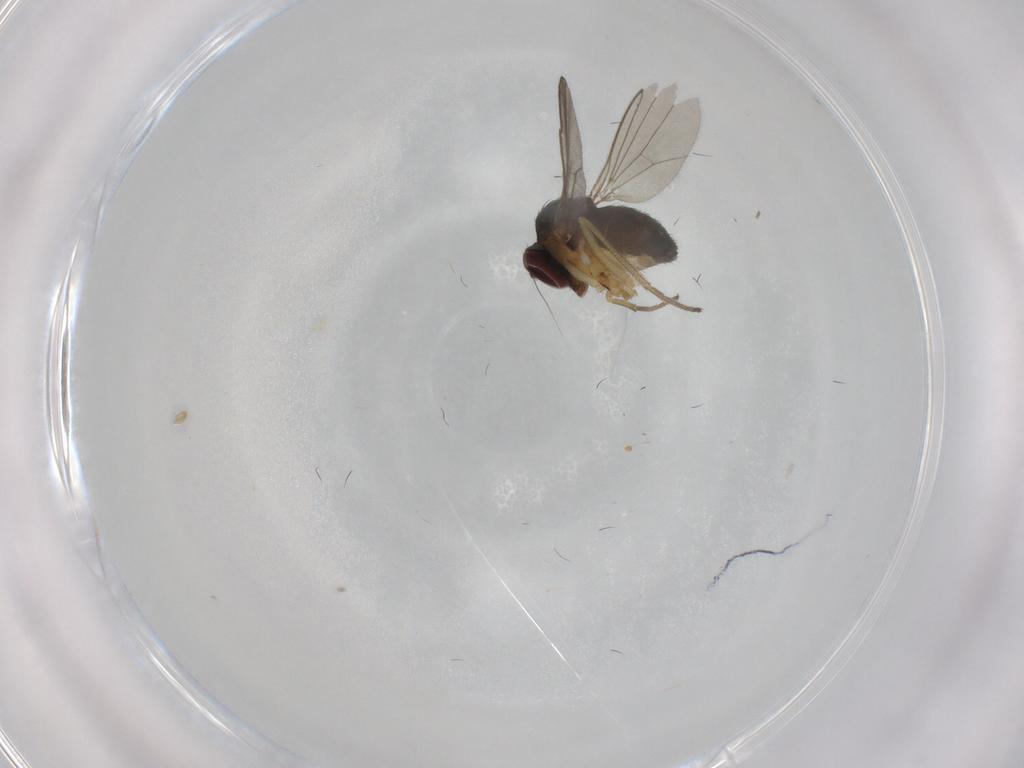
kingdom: Animalia
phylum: Arthropoda
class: Insecta
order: Diptera
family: Dolichopodidae
